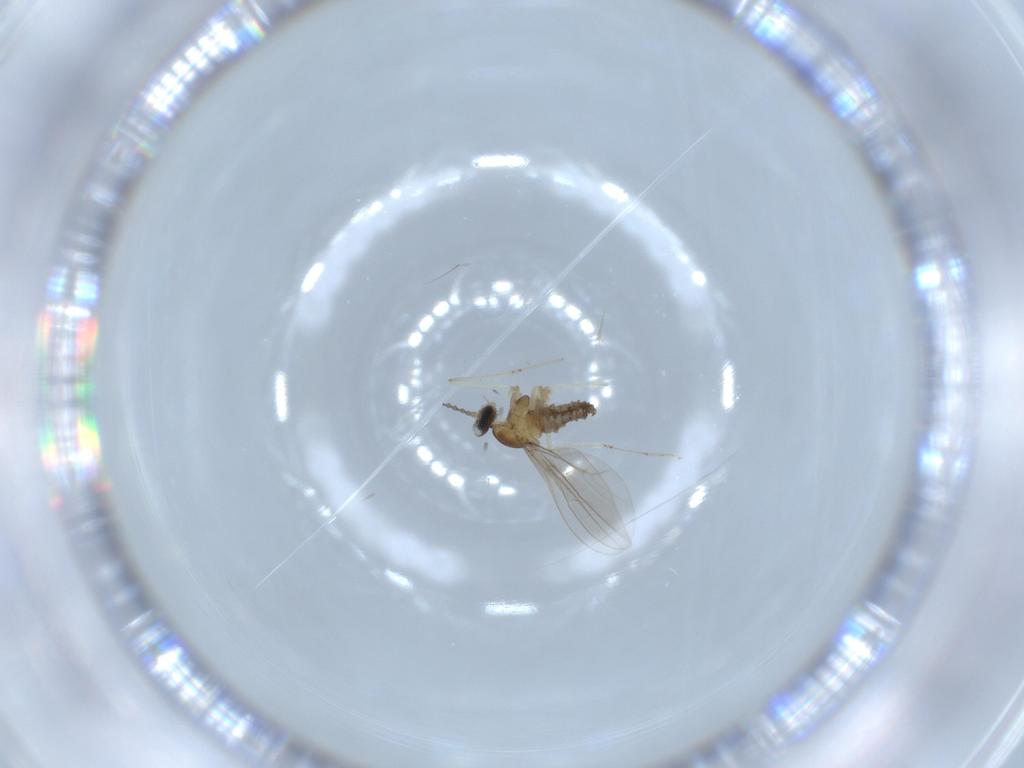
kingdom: Animalia
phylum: Arthropoda
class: Insecta
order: Diptera
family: Cecidomyiidae
